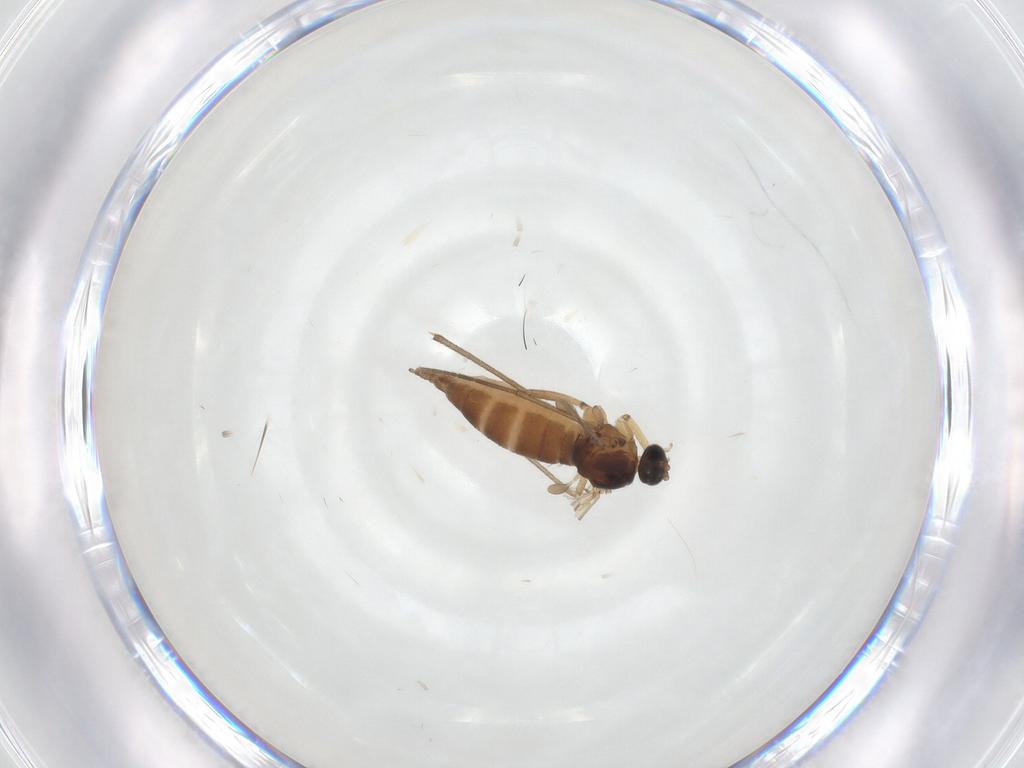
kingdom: Animalia
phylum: Arthropoda
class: Insecta
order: Diptera
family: Sciaridae
